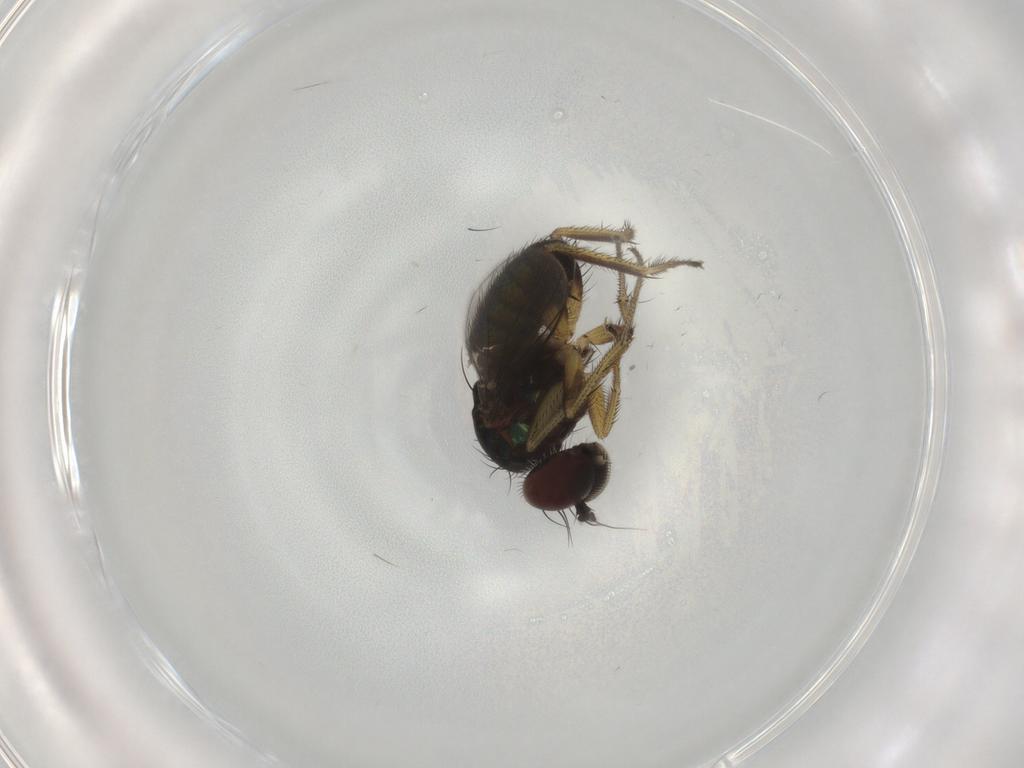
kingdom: Animalia
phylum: Arthropoda
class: Insecta
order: Diptera
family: Dolichopodidae
